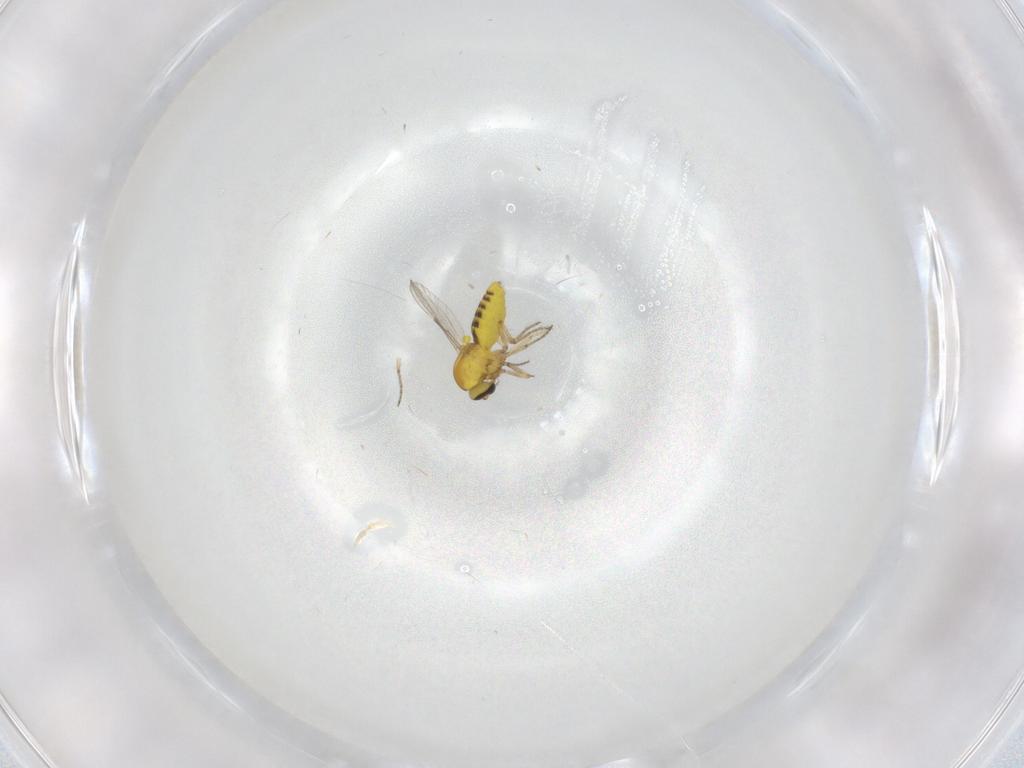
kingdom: Animalia
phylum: Arthropoda
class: Insecta
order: Diptera
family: Ceratopogonidae
